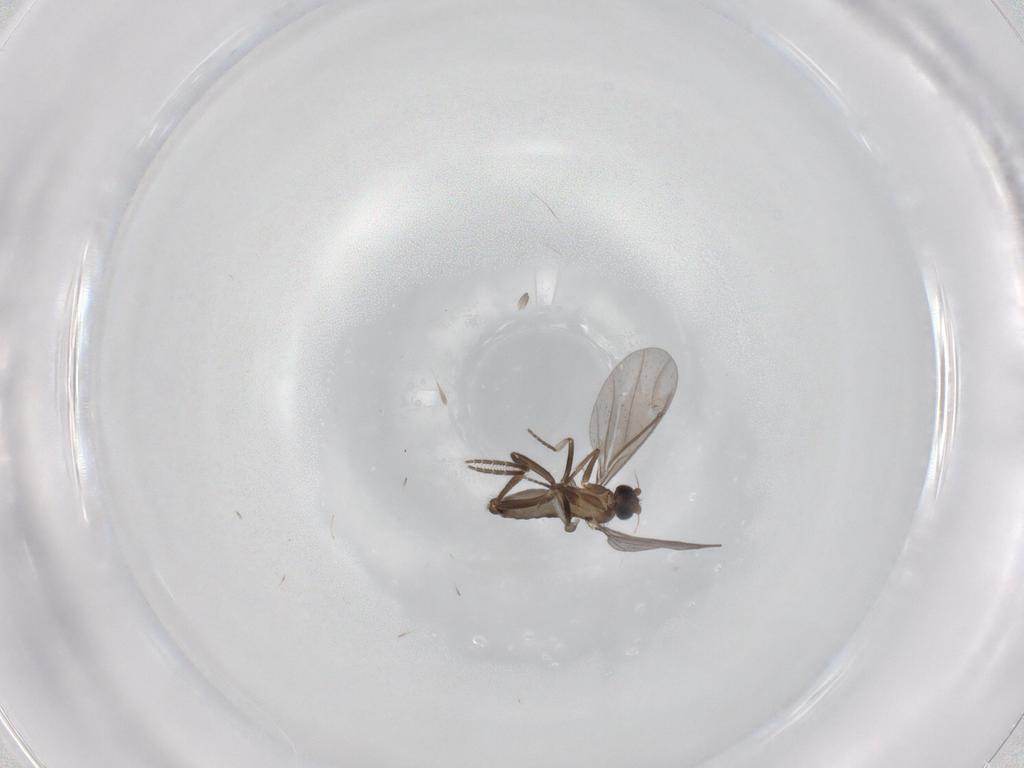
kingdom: Animalia
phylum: Arthropoda
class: Insecta
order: Diptera
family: Phoridae
